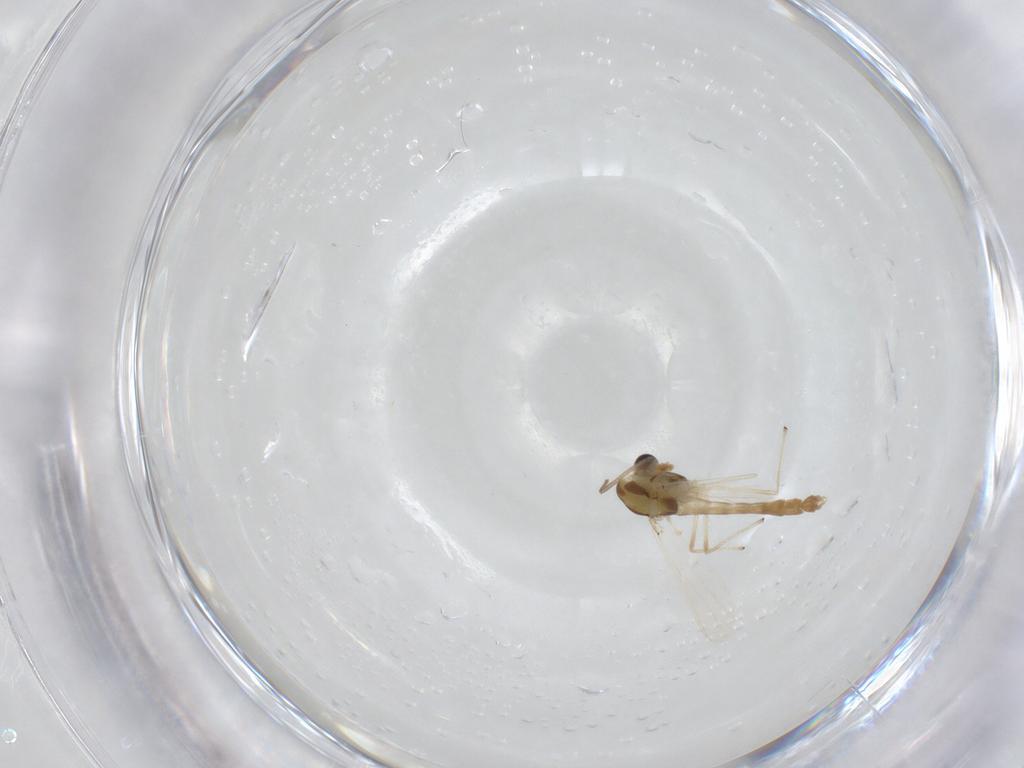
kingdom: Animalia
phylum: Arthropoda
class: Insecta
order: Diptera
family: Chironomidae
